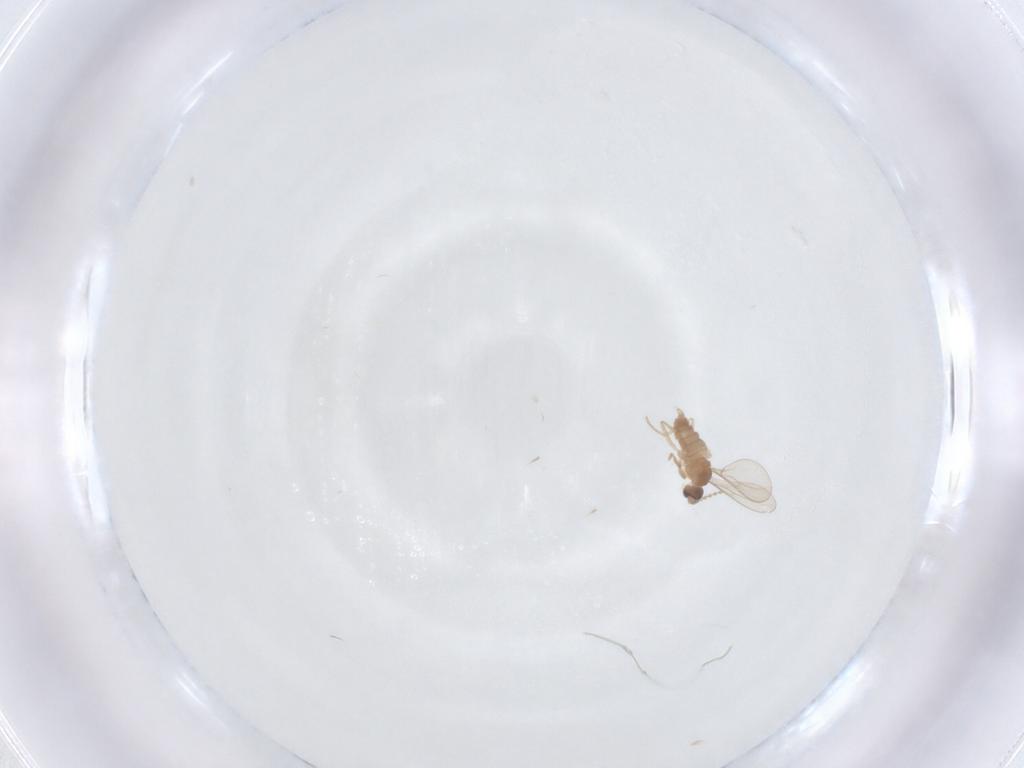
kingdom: Animalia
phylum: Arthropoda
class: Insecta
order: Diptera
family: Cecidomyiidae
